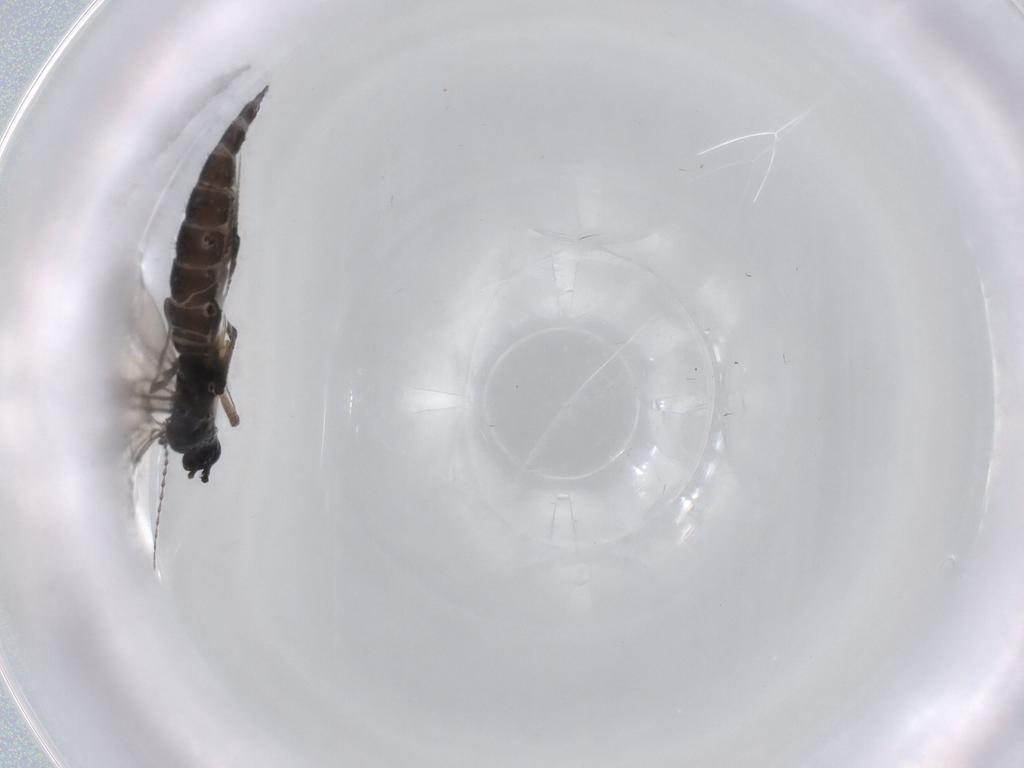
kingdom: Animalia
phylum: Arthropoda
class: Insecta
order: Diptera
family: Sciaridae
